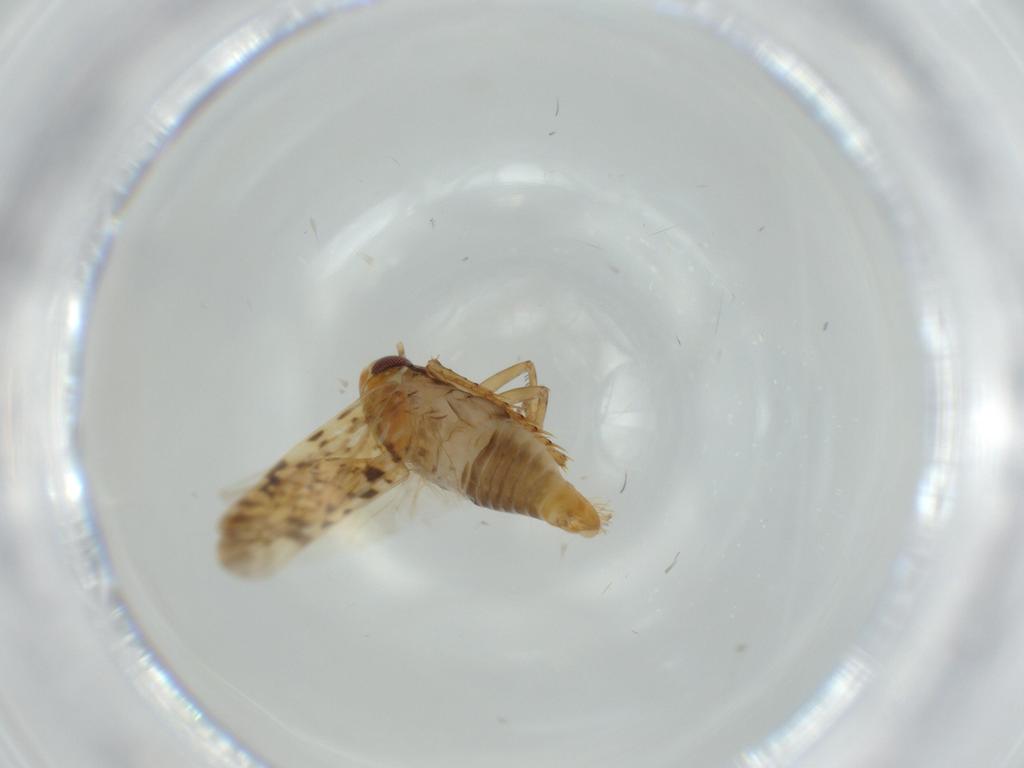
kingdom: Animalia
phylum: Arthropoda
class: Insecta
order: Hemiptera
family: Cicadellidae
